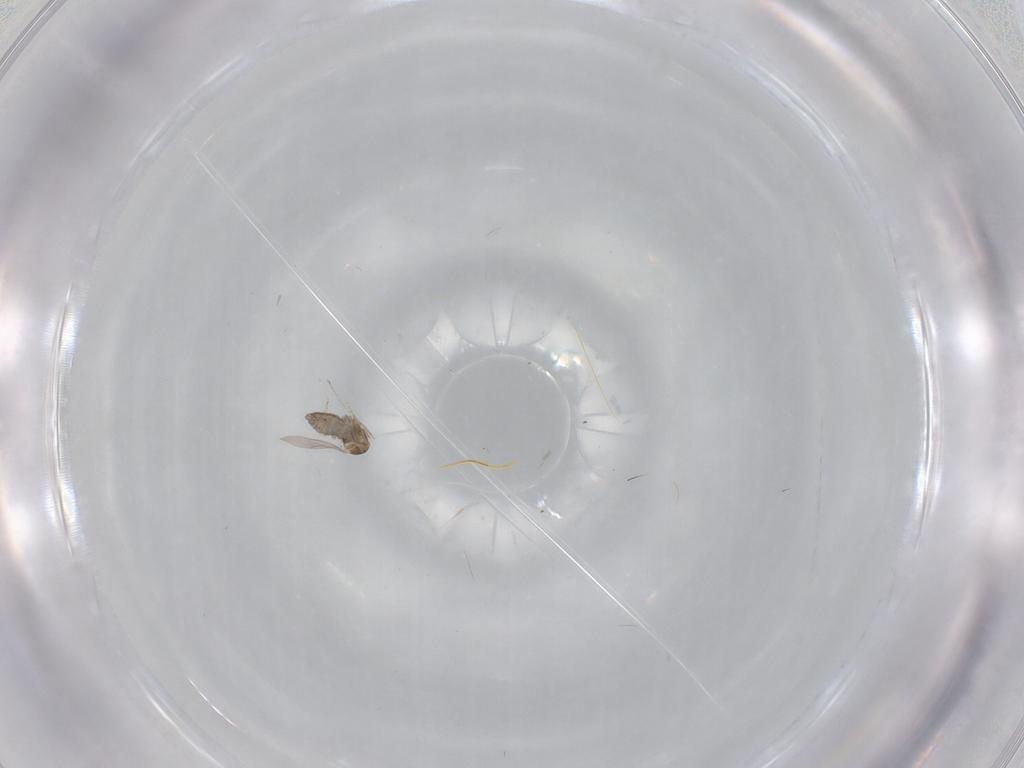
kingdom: Animalia
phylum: Arthropoda
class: Insecta
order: Diptera
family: Cecidomyiidae
